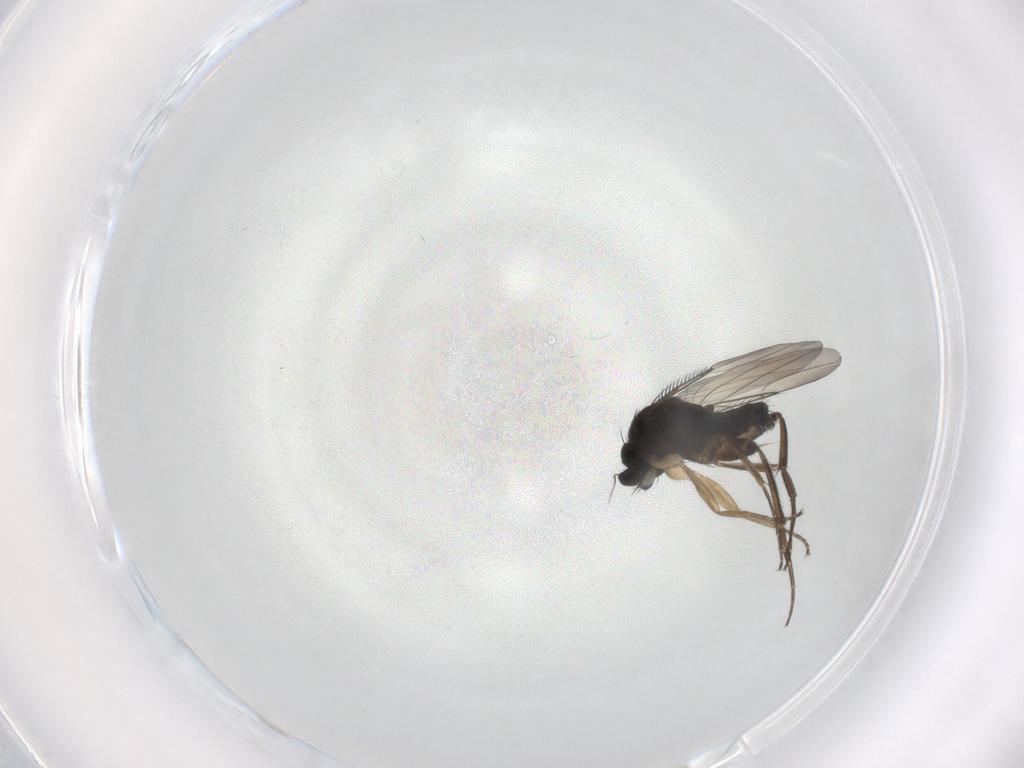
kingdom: Animalia
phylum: Arthropoda
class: Insecta
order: Diptera
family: Phoridae
